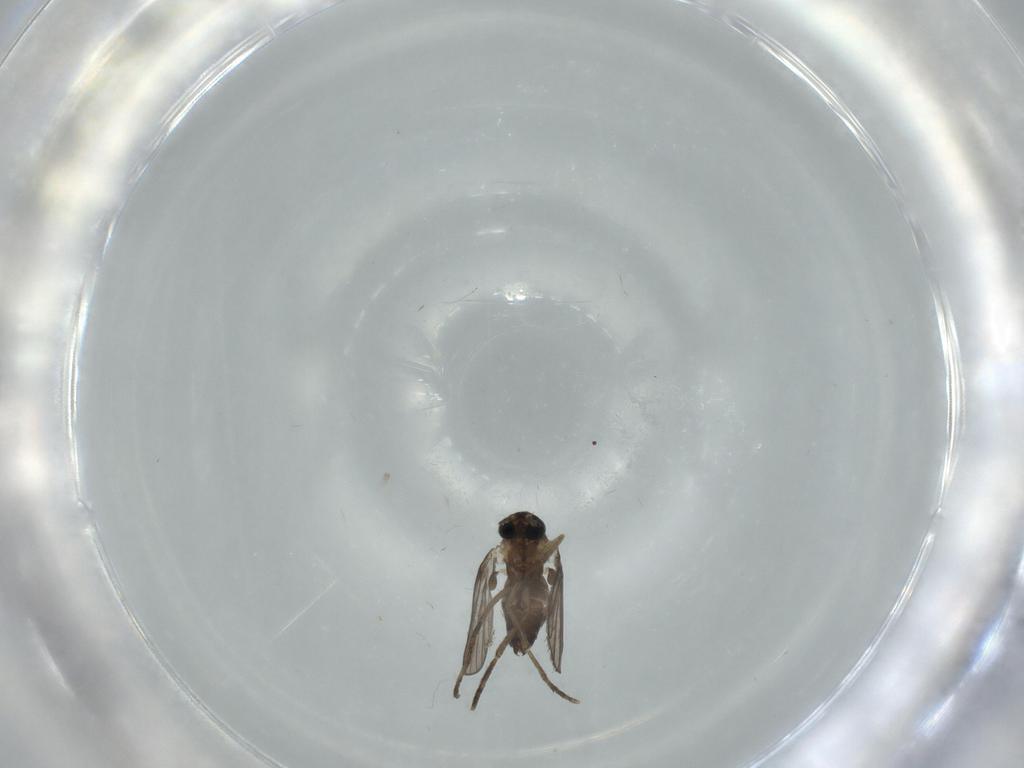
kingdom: Animalia
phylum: Arthropoda
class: Insecta
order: Diptera
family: Psychodidae
